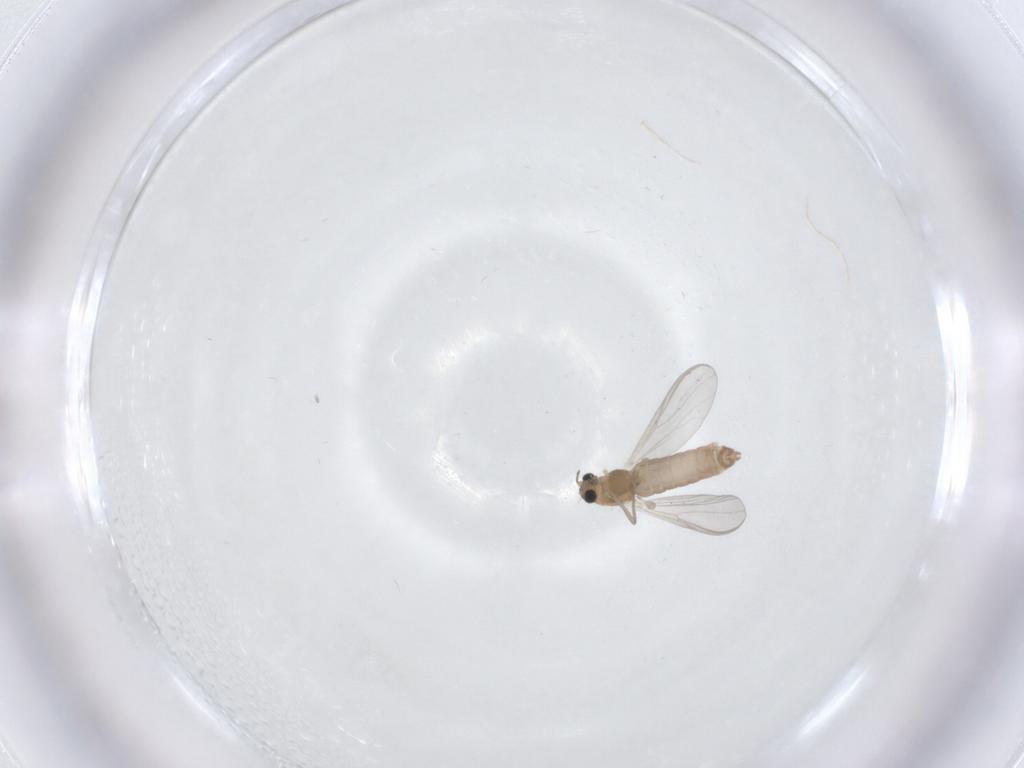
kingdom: Animalia
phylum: Arthropoda
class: Insecta
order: Diptera
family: Chironomidae
